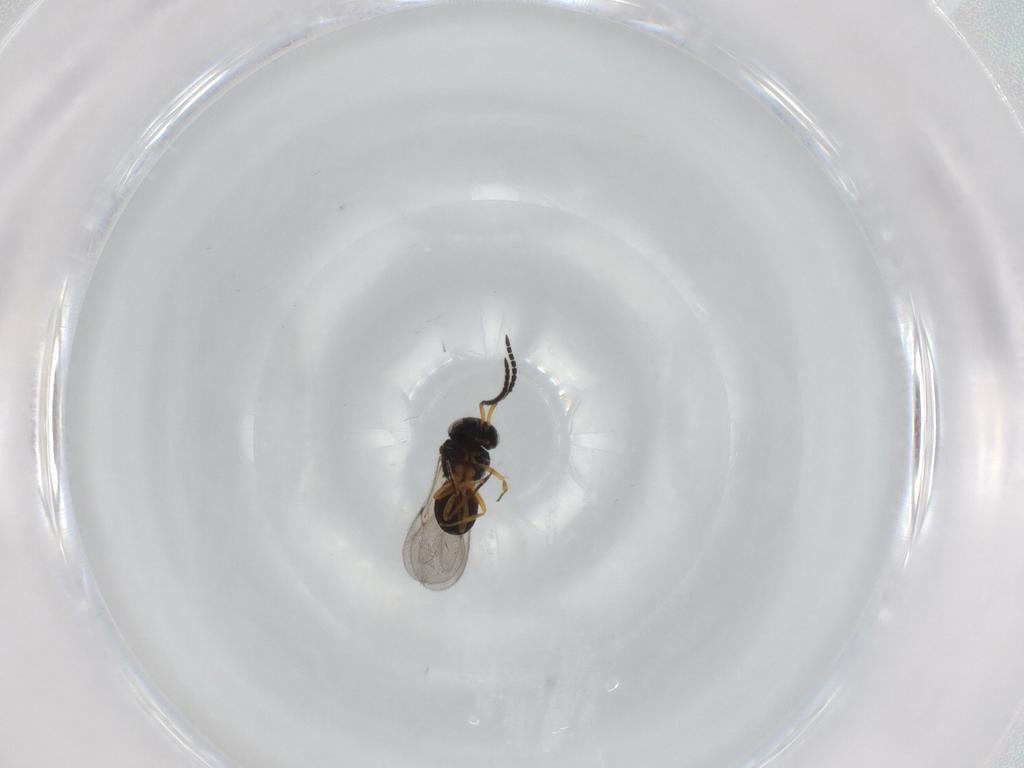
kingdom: Animalia
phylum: Arthropoda
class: Insecta
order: Hymenoptera
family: Scelionidae
